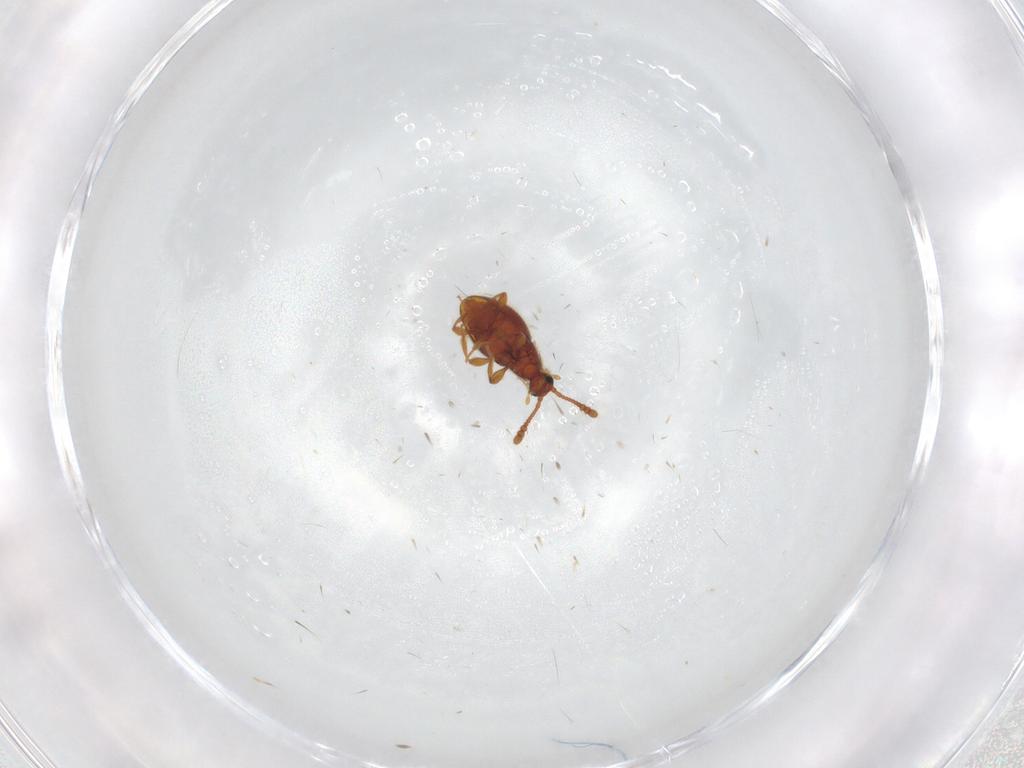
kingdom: Animalia
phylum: Arthropoda
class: Insecta
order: Coleoptera
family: Staphylinidae
